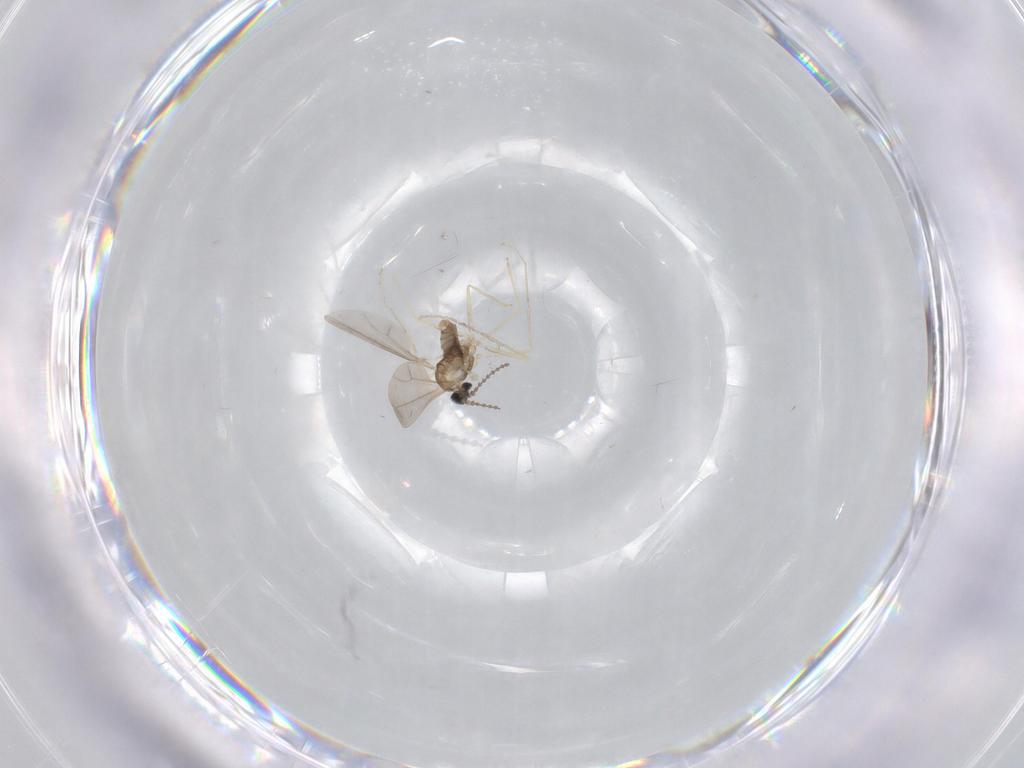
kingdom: Animalia
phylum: Arthropoda
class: Insecta
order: Diptera
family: Cecidomyiidae
